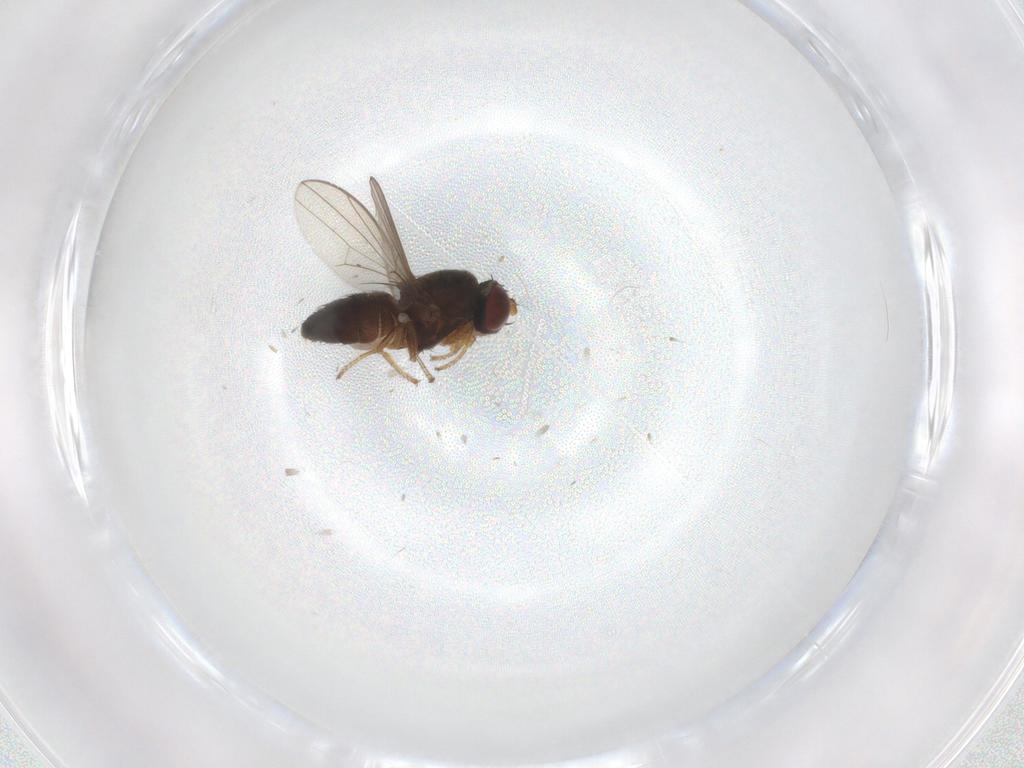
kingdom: Animalia
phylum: Arthropoda
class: Insecta
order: Diptera
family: Ephydridae
